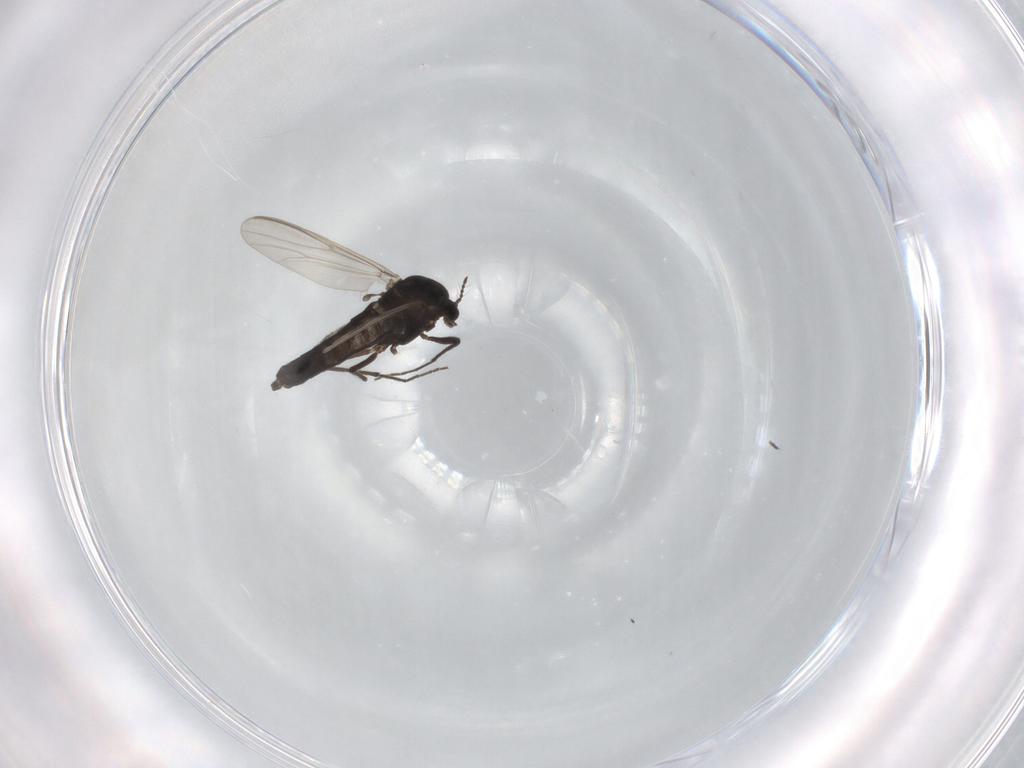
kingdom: Animalia
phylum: Arthropoda
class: Insecta
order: Diptera
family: Chironomidae
